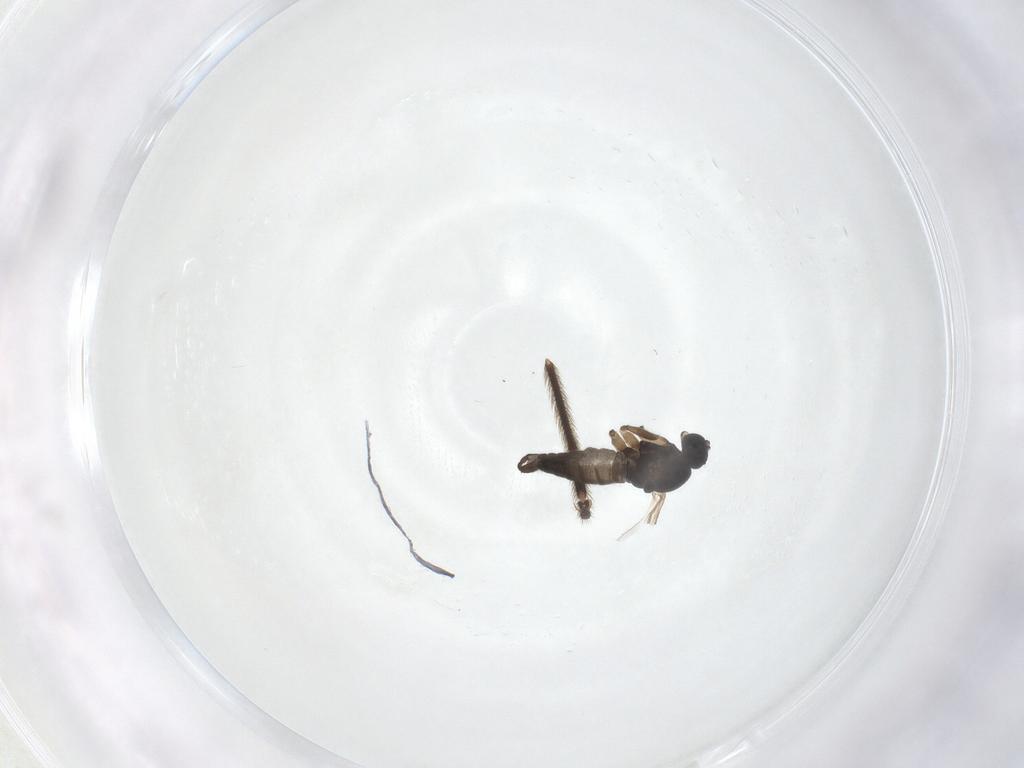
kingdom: Animalia
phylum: Arthropoda
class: Insecta
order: Diptera
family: Sciaridae
